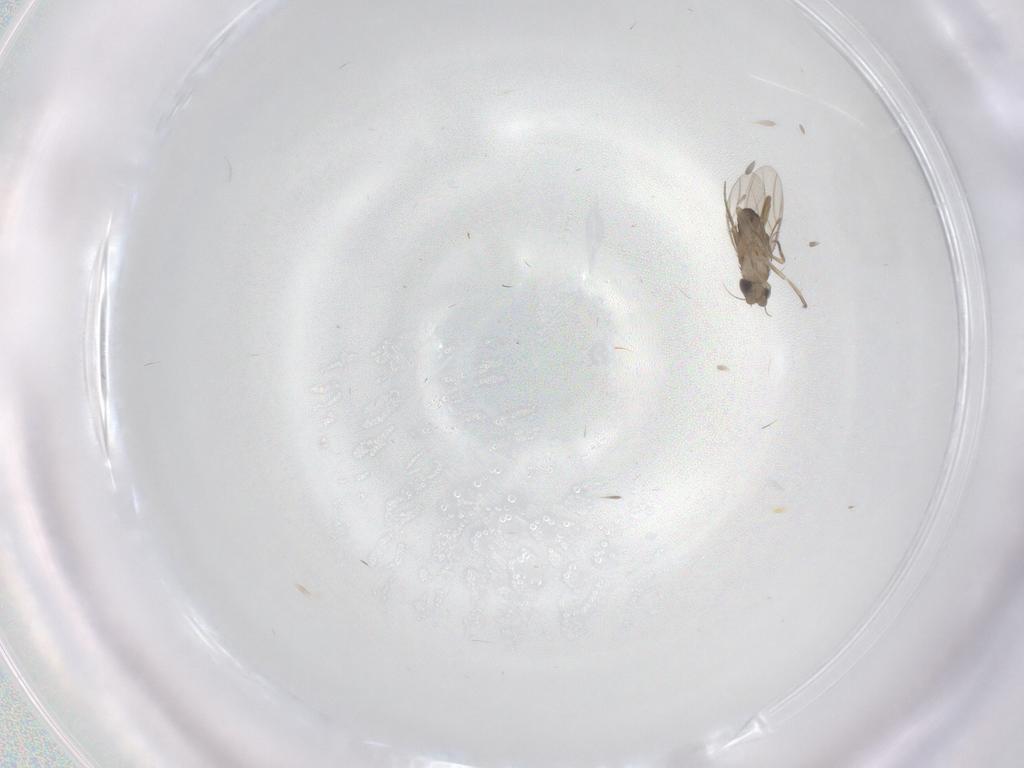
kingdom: Animalia
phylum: Arthropoda
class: Insecta
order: Diptera
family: Phoridae
